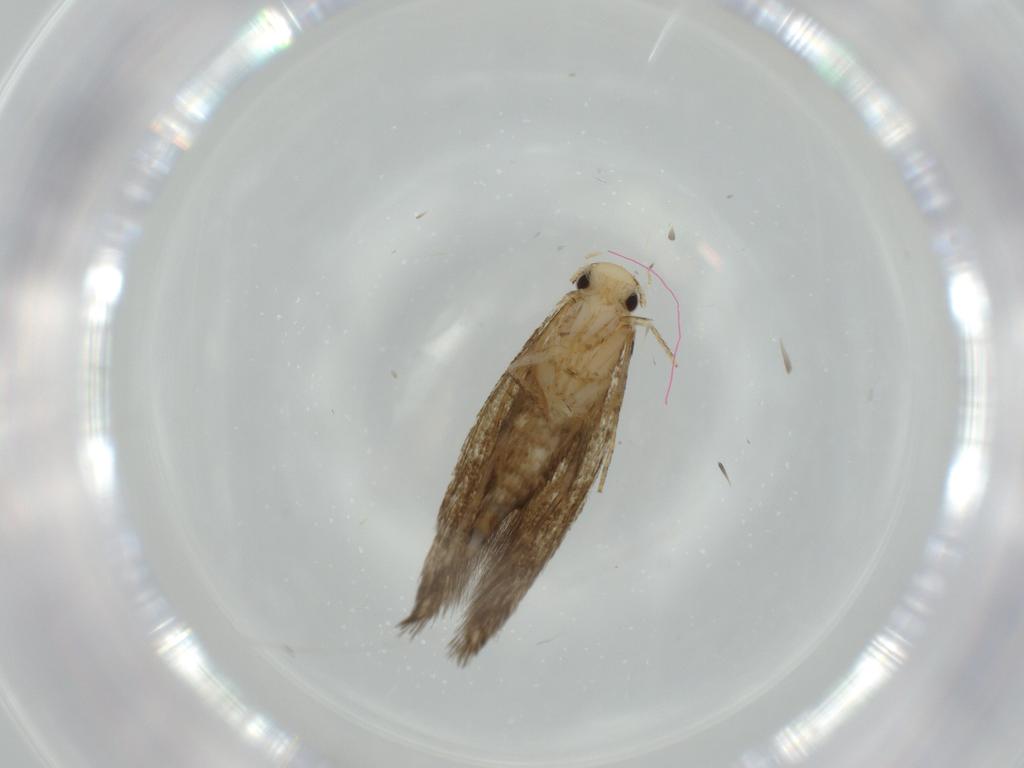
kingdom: Animalia
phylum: Arthropoda
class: Insecta
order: Lepidoptera
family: Tineidae
